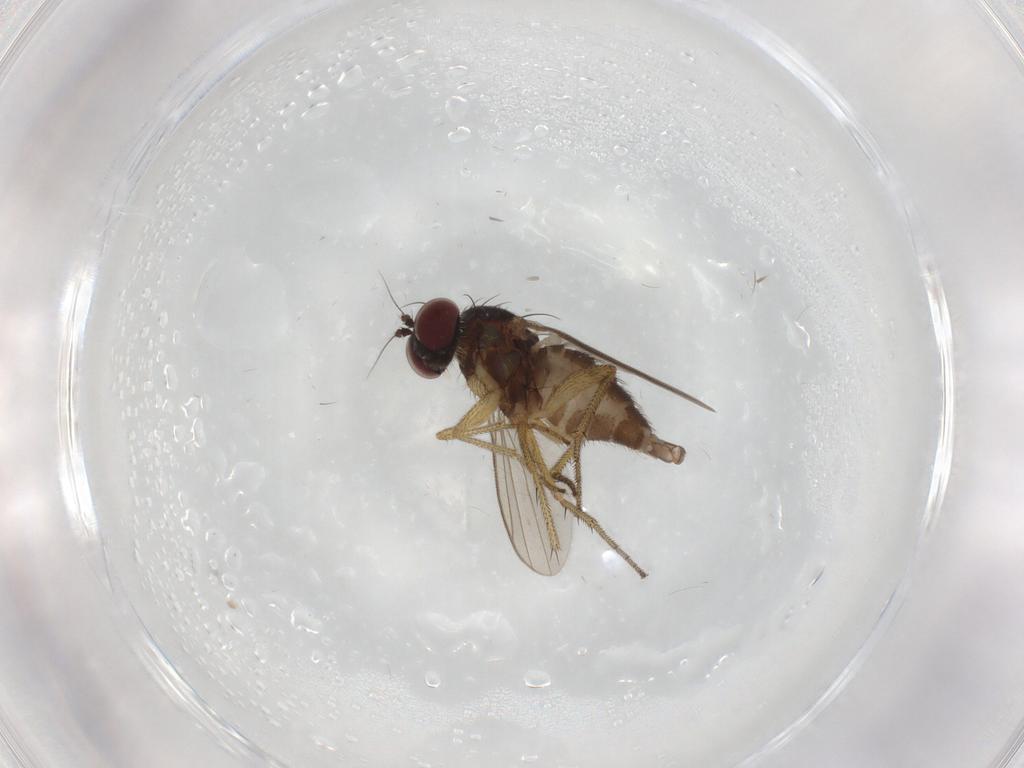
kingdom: Animalia
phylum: Arthropoda
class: Insecta
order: Diptera
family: Dolichopodidae
